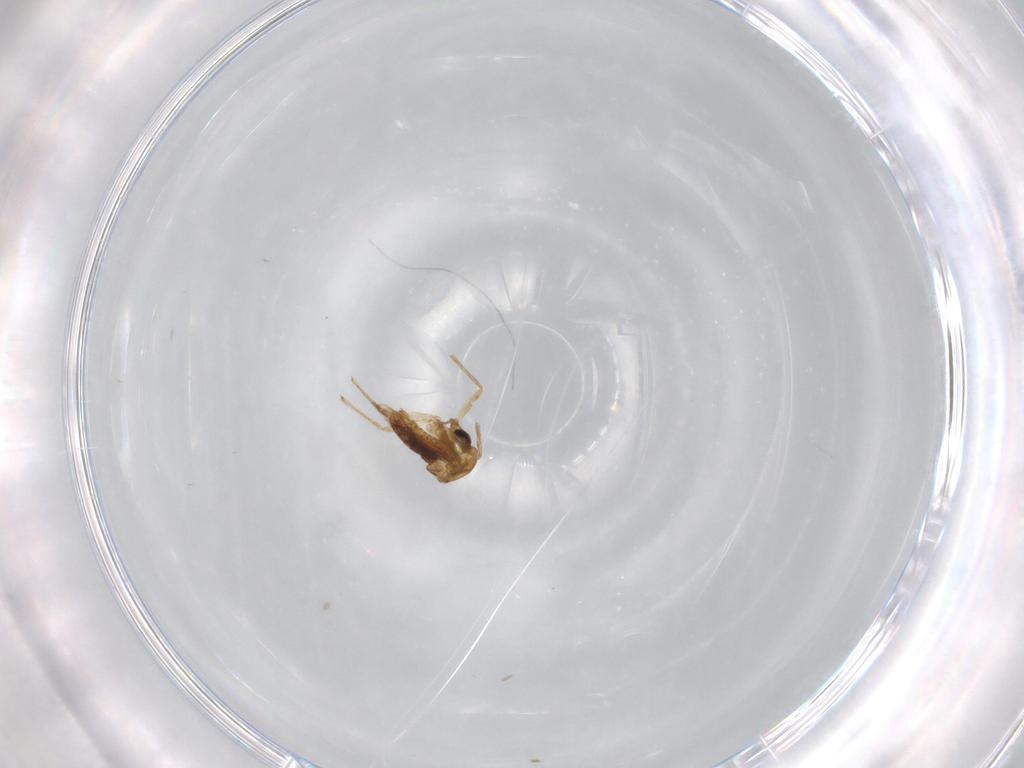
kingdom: Animalia
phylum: Arthropoda
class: Insecta
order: Diptera
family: Chironomidae
